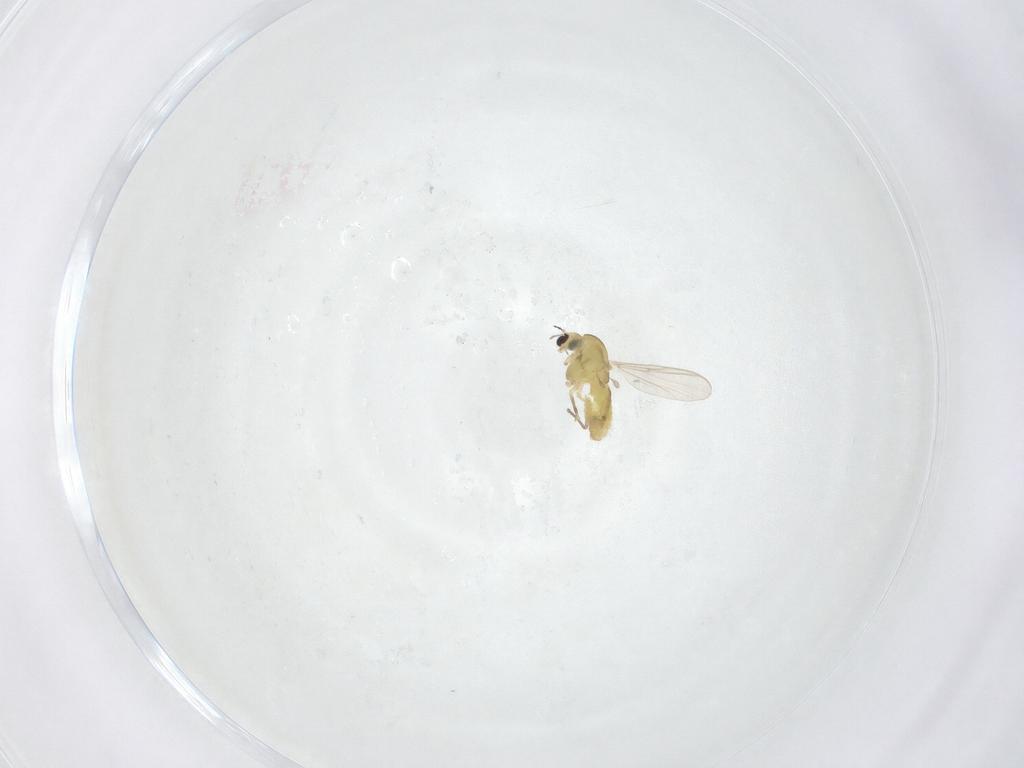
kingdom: Animalia
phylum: Arthropoda
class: Insecta
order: Diptera
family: Chironomidae
